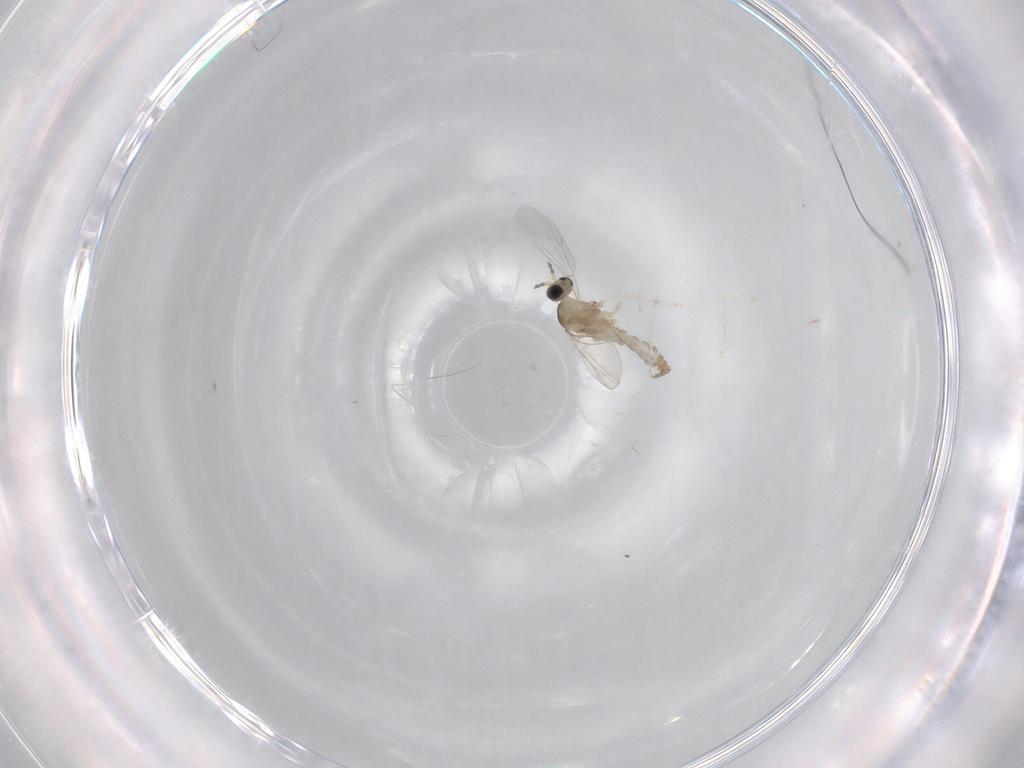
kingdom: Animalia
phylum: Arthropoda
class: Insecta
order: Diptera
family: Cecidomyiidae
